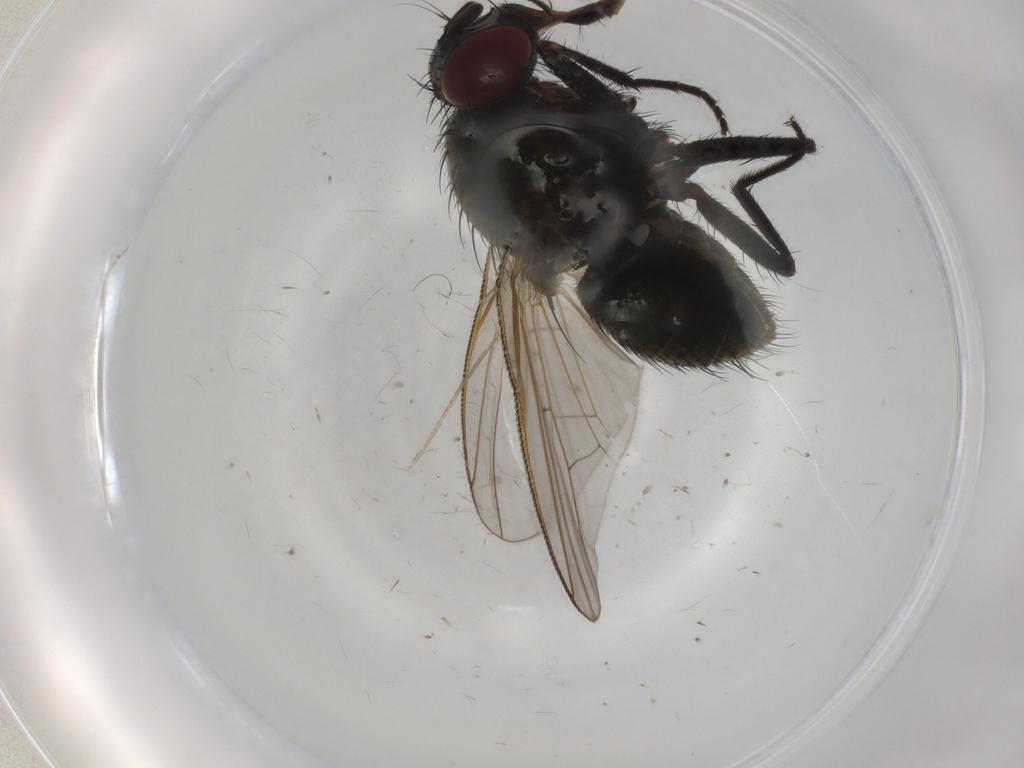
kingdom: Animalia
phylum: Arthropoda
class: Insecta
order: Diptera
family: Muscidae
